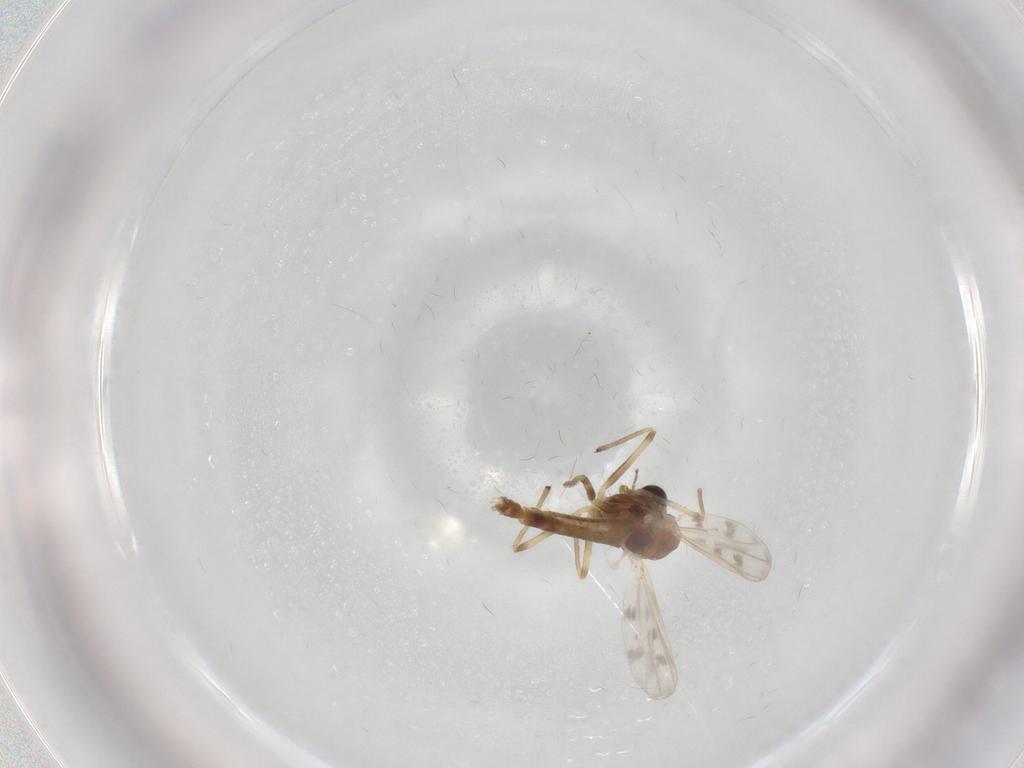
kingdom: Animalia
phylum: Arthropoda
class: Insecta
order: Diptera
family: Chironomidae
